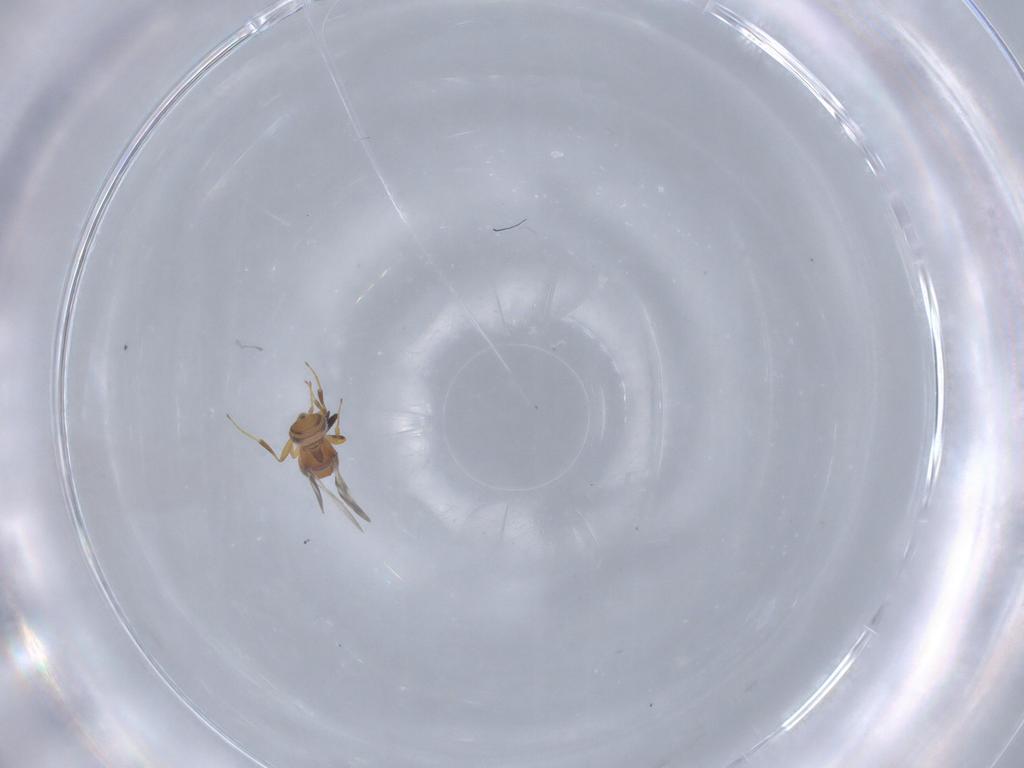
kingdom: Animalia
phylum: Arthropoda
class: Insecta
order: Hymenoptera
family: Scelionidae
